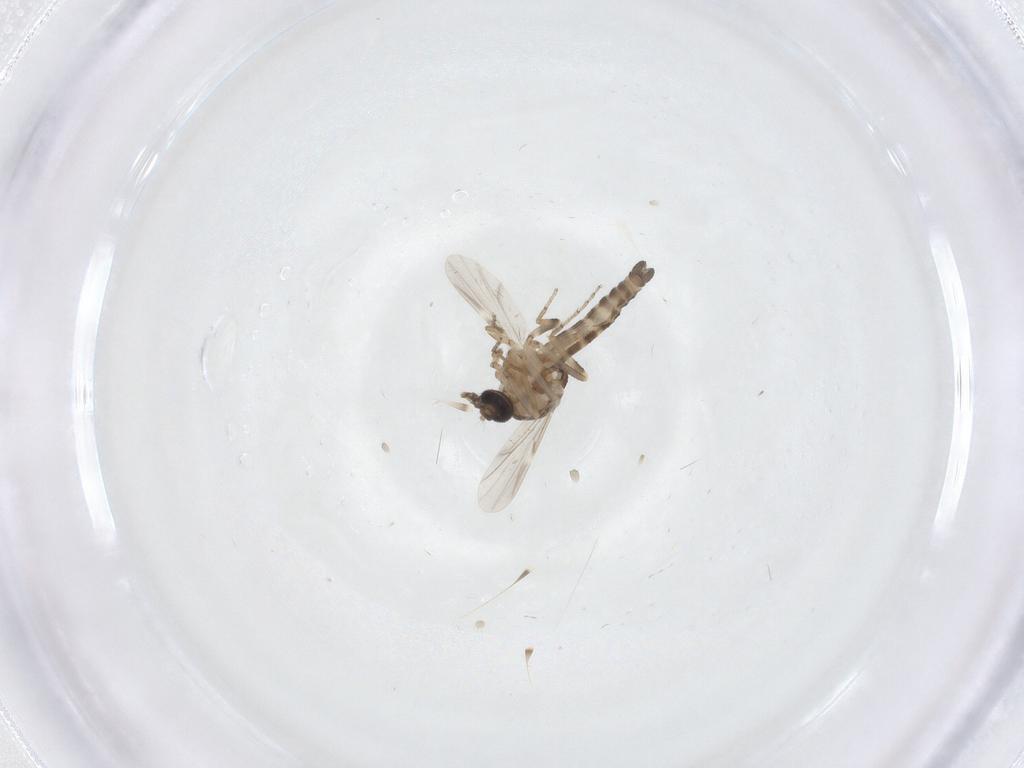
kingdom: Animalia
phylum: Arthropoda
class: Insecta
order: Diptera
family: Ceratopogonidae
